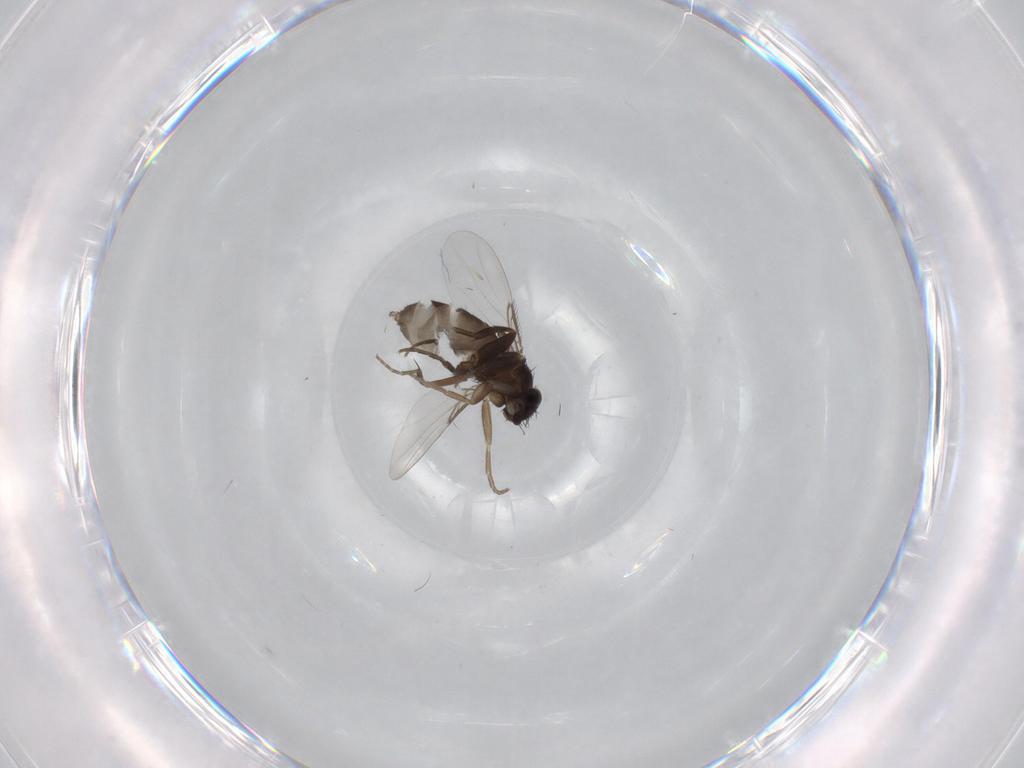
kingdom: Animalia
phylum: Arthropoda
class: Insecta
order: Diptera
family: Phoridae
